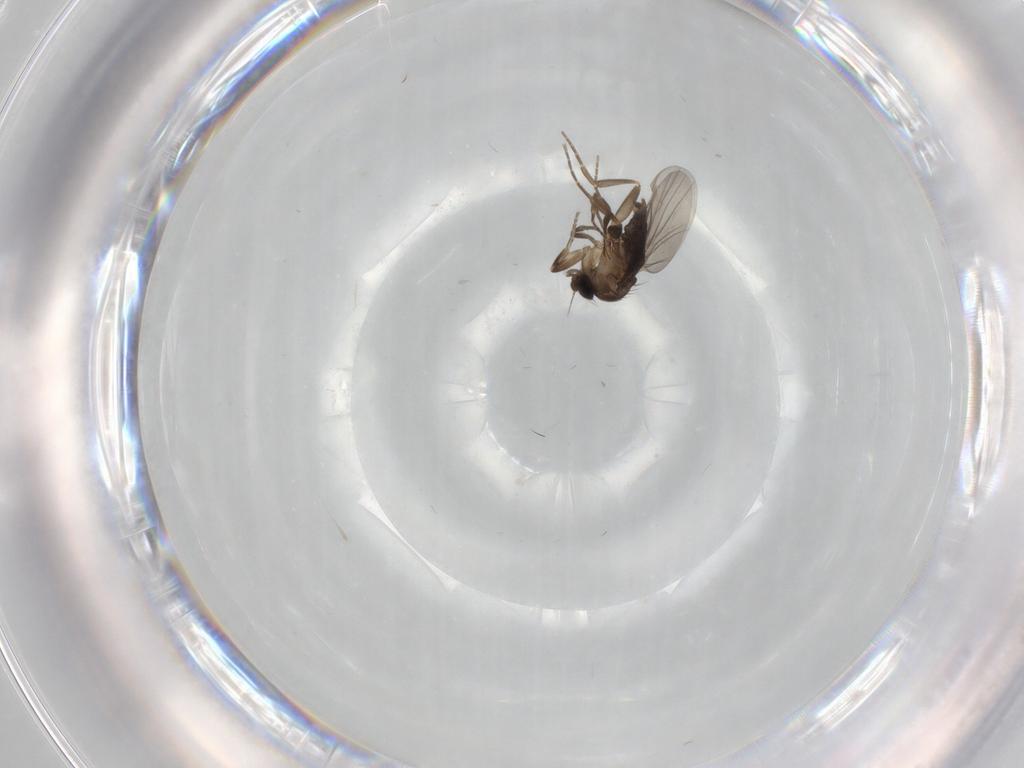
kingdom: Animalia
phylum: Arthropoda
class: Insecta
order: Diptera
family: Phoridae
